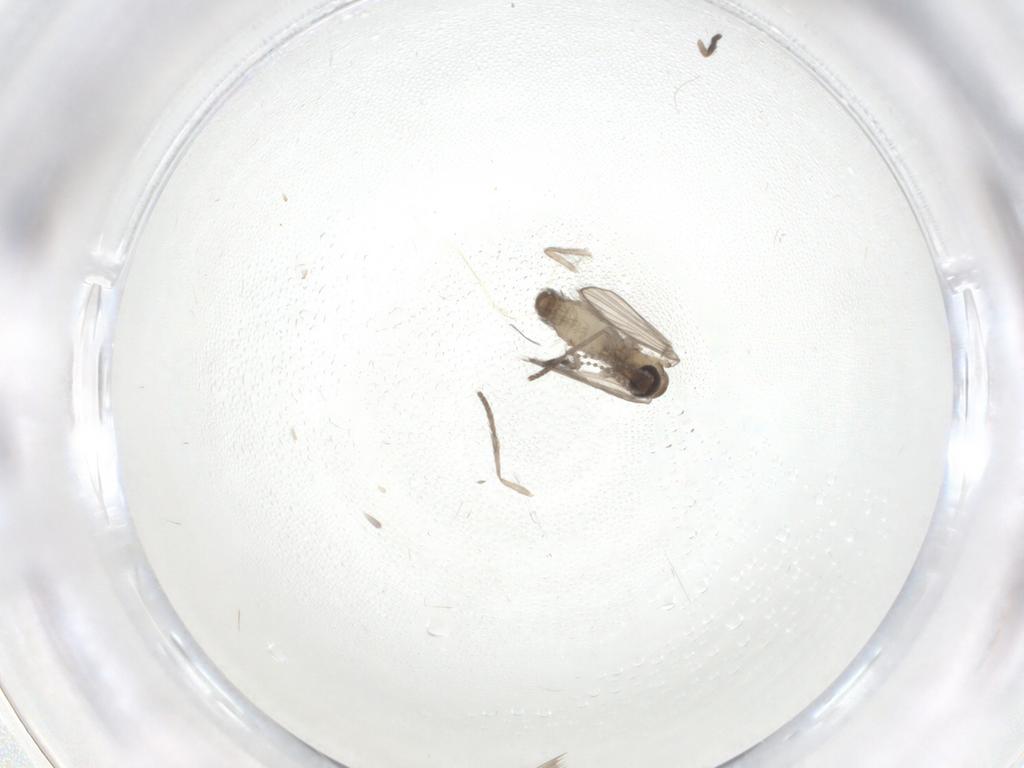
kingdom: Animalia
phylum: Arthropoda
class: Insecta
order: Diptera
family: Psychodidae
